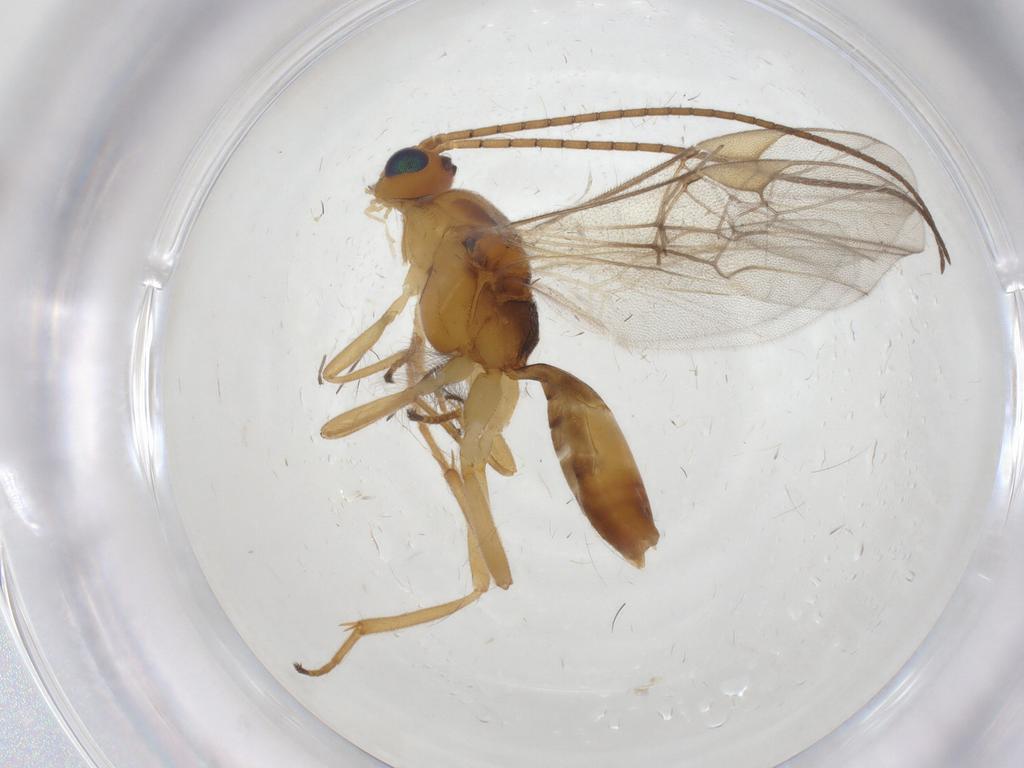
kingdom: Animalia
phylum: Arthropoda
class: Insecta
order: Hymenoptera
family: Braconidae
